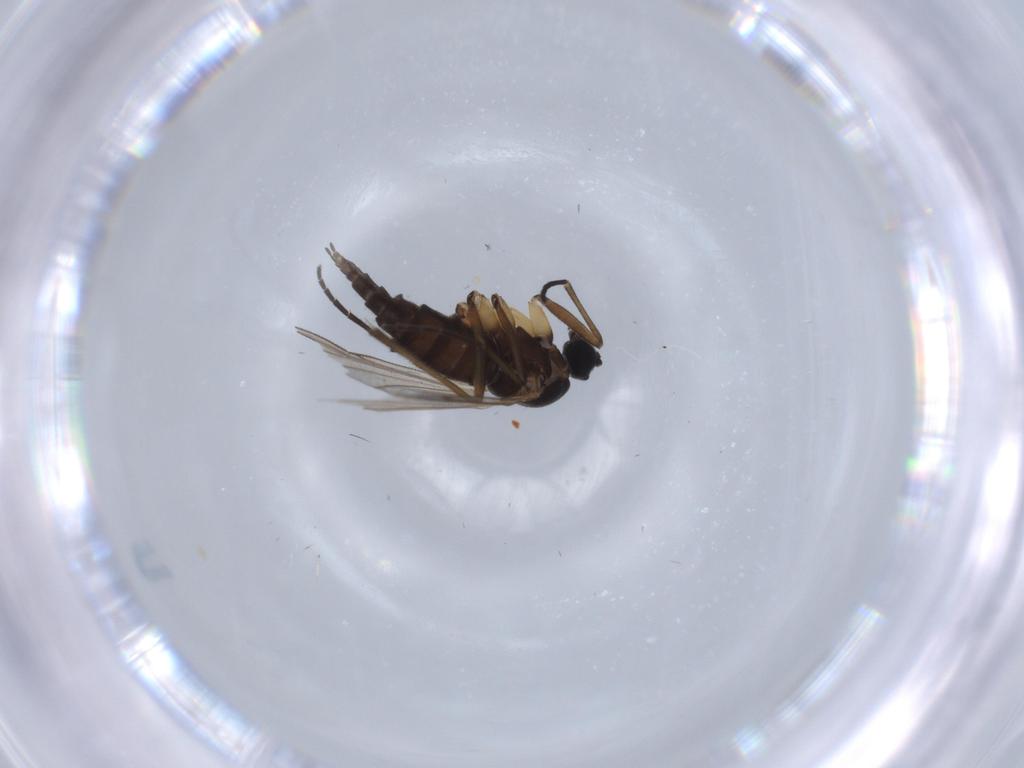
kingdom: Animalia
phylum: Arthropoda
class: Insecta
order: Diptera
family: Sciaridae
